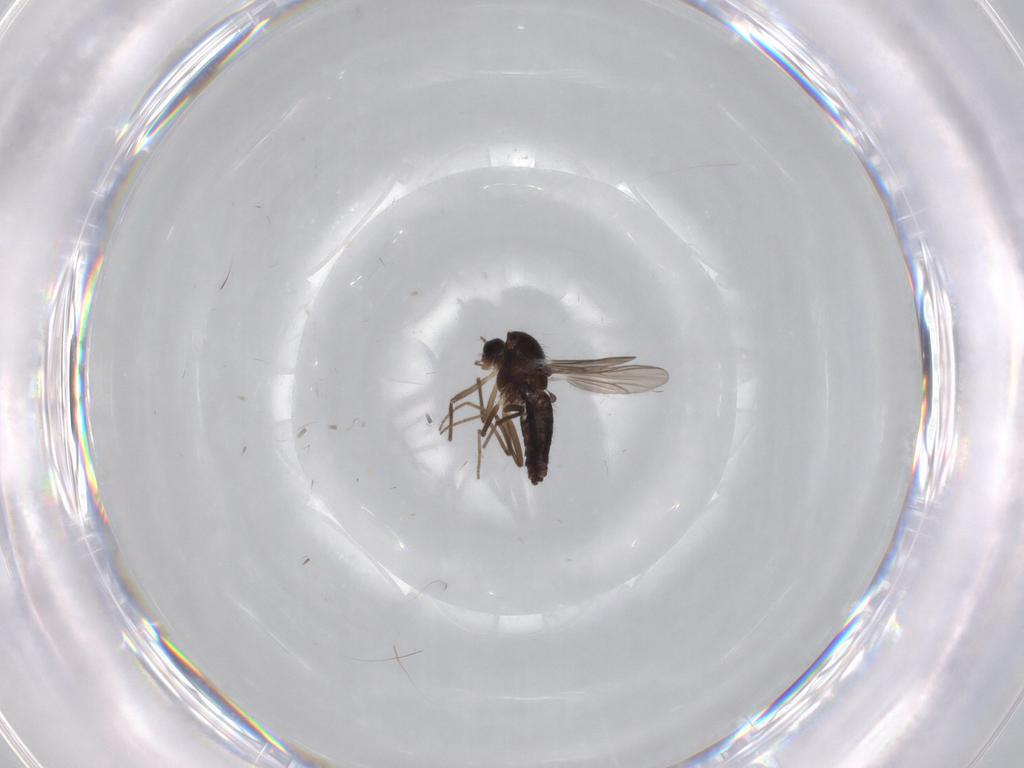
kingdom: Animalia
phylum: Arthropoda
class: Insecta
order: Diptera
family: Chironomidae
